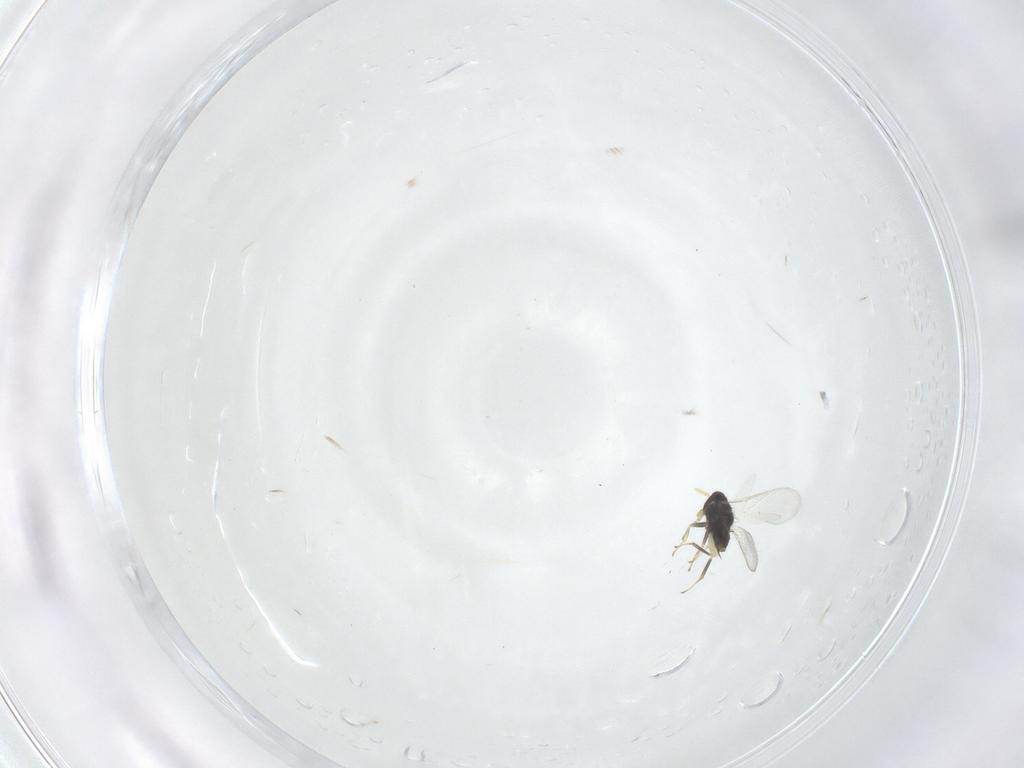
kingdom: Animalia
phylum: Arthropoda
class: Insecta
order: Hymenoptera
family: Aphelinidae
